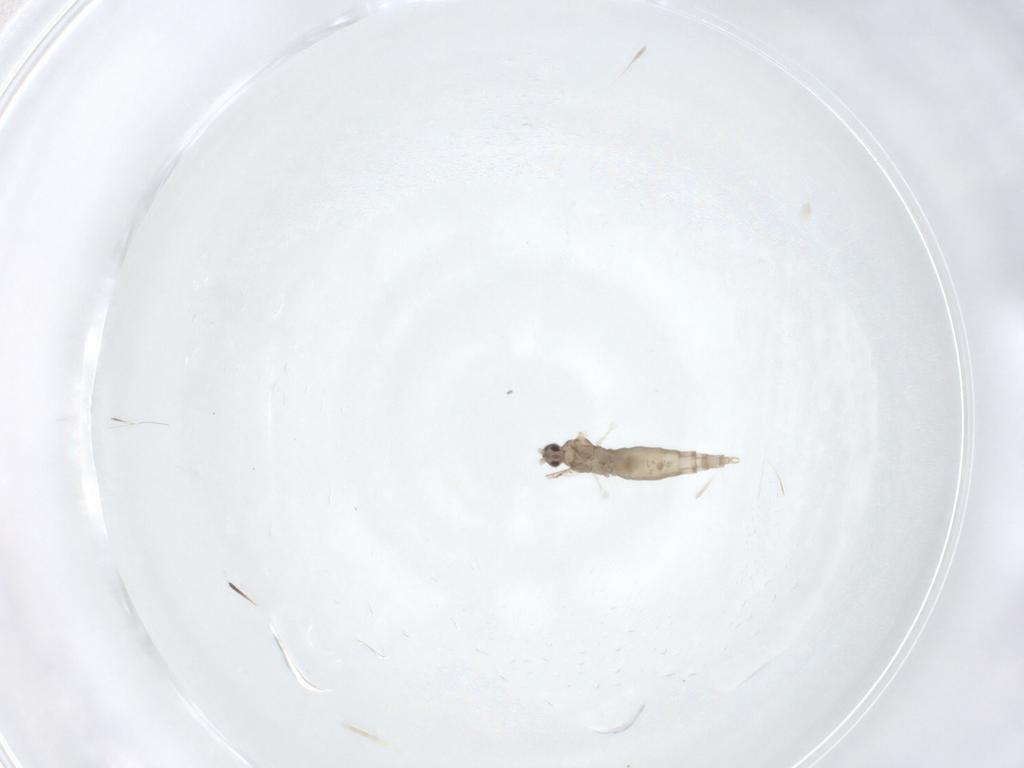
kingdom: Animalia
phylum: Arthropoda
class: Insecta
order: Diptera
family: Cecidomyiidae
